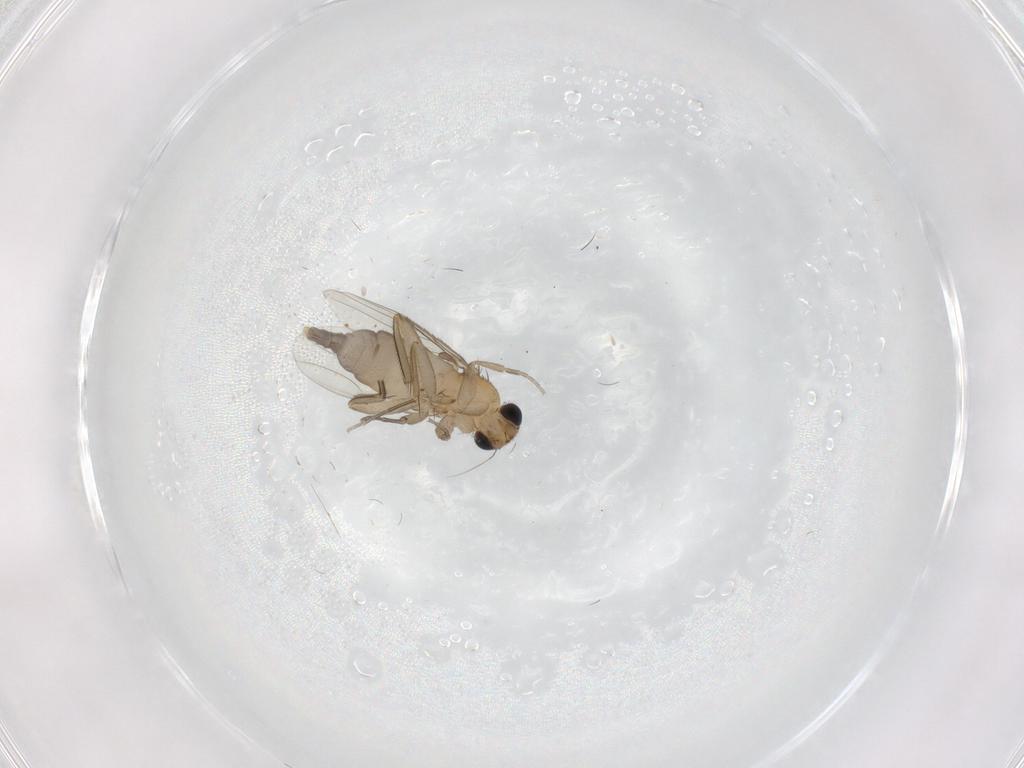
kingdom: Animalia
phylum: Arthropoda
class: Insecta
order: Diptera
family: Phoridae
